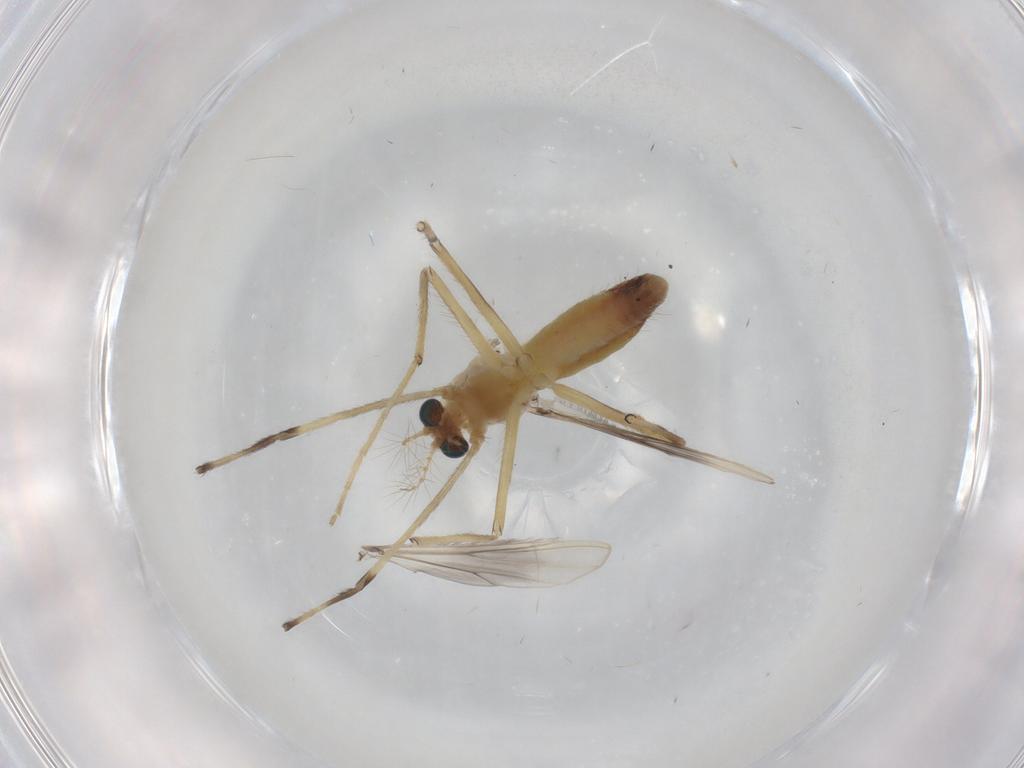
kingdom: Animalia
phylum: Arthropoda
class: Insecta
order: Diptera
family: Chironomidae
